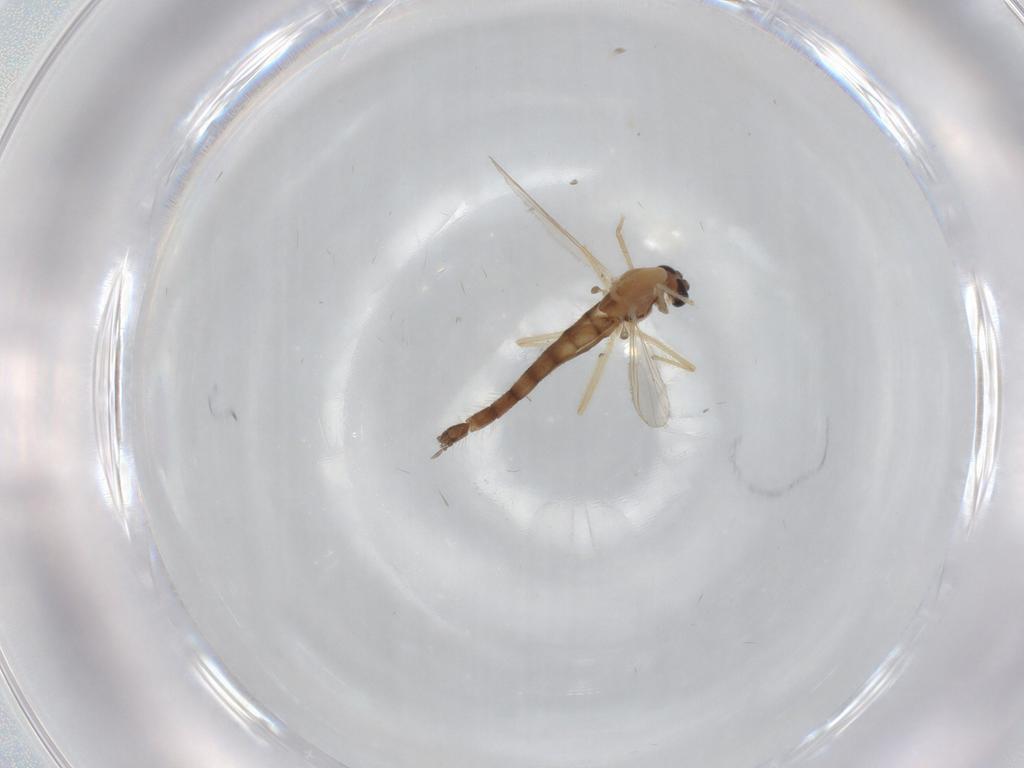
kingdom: Animalia
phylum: Arthropoda
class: Insecta
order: Diptera
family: Chironomidae
